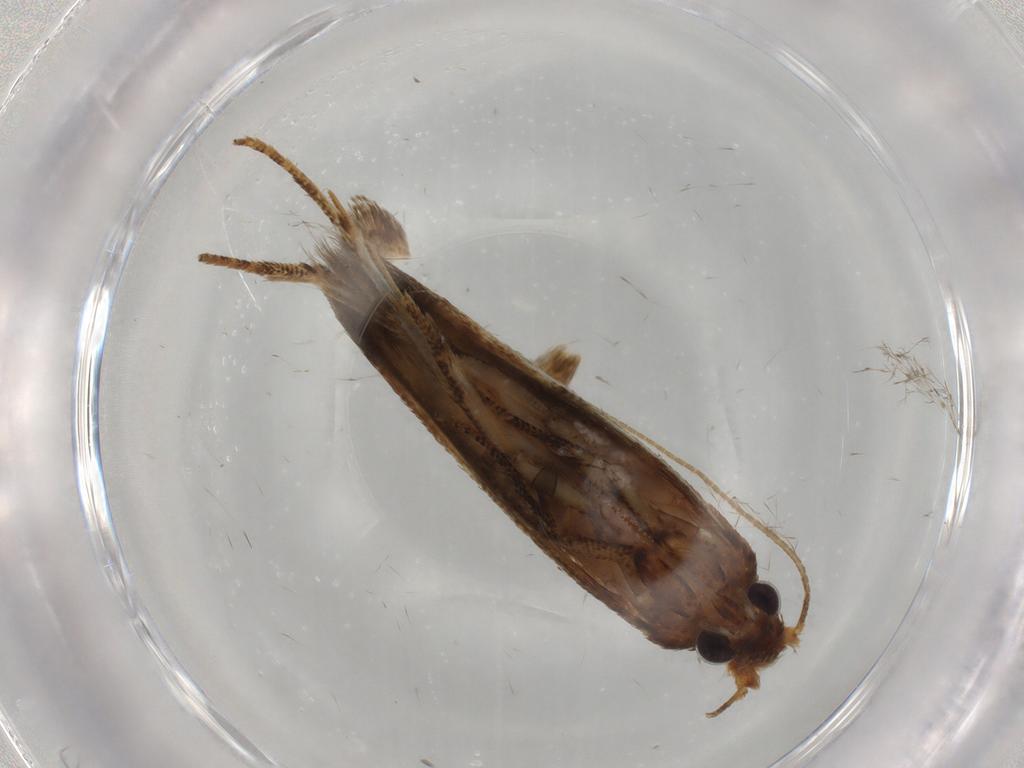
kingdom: Animalia
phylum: Arthropoda
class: Insecta
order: Lepidoptera
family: Blastobasidae
